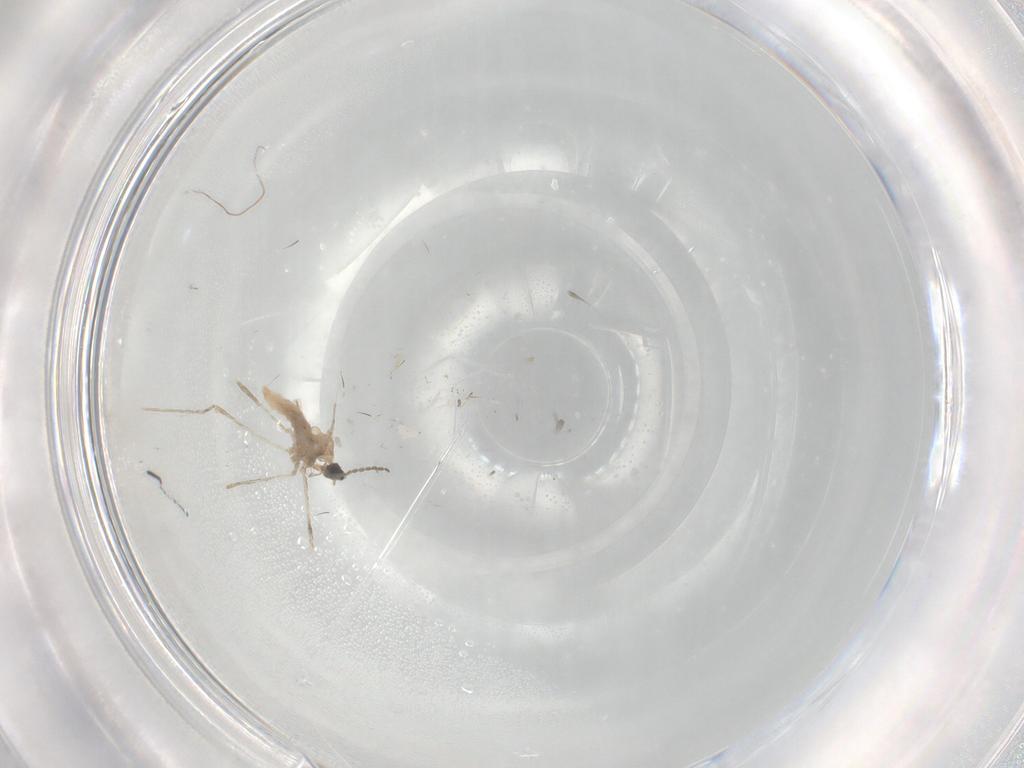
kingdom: Animalia
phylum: Arthropoda
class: Insecta
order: Diptera
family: Cecidomyiidae
